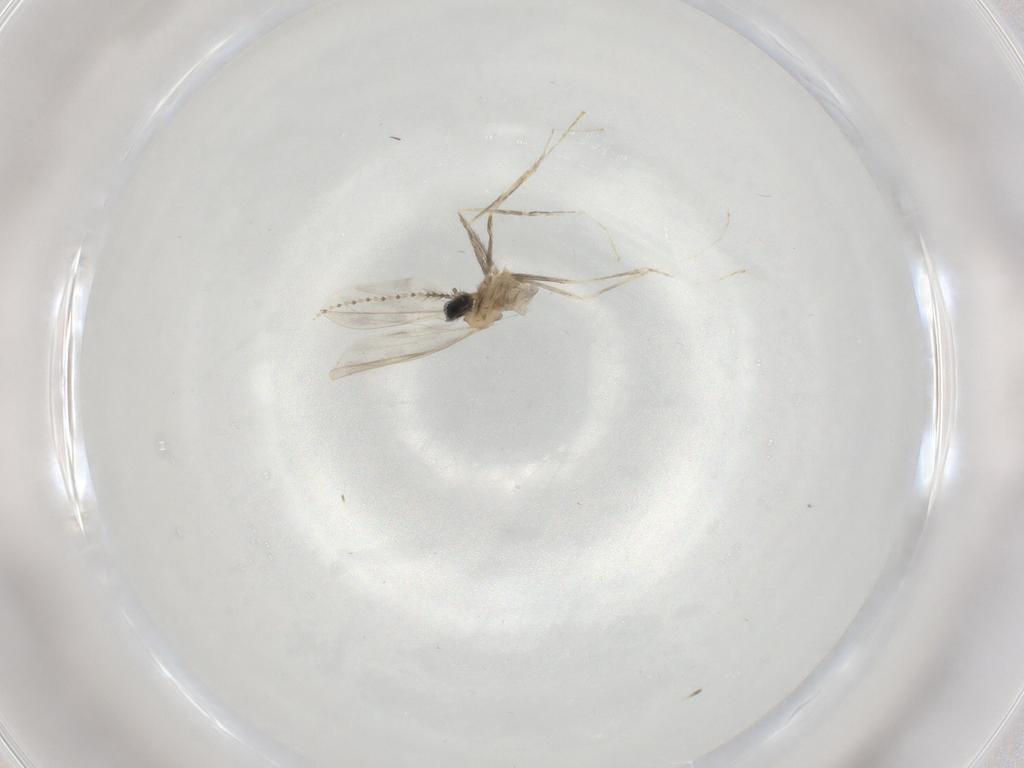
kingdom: Animalia
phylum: Arthropoda
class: Insecta
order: Diptera
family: Cecidomyiidae
